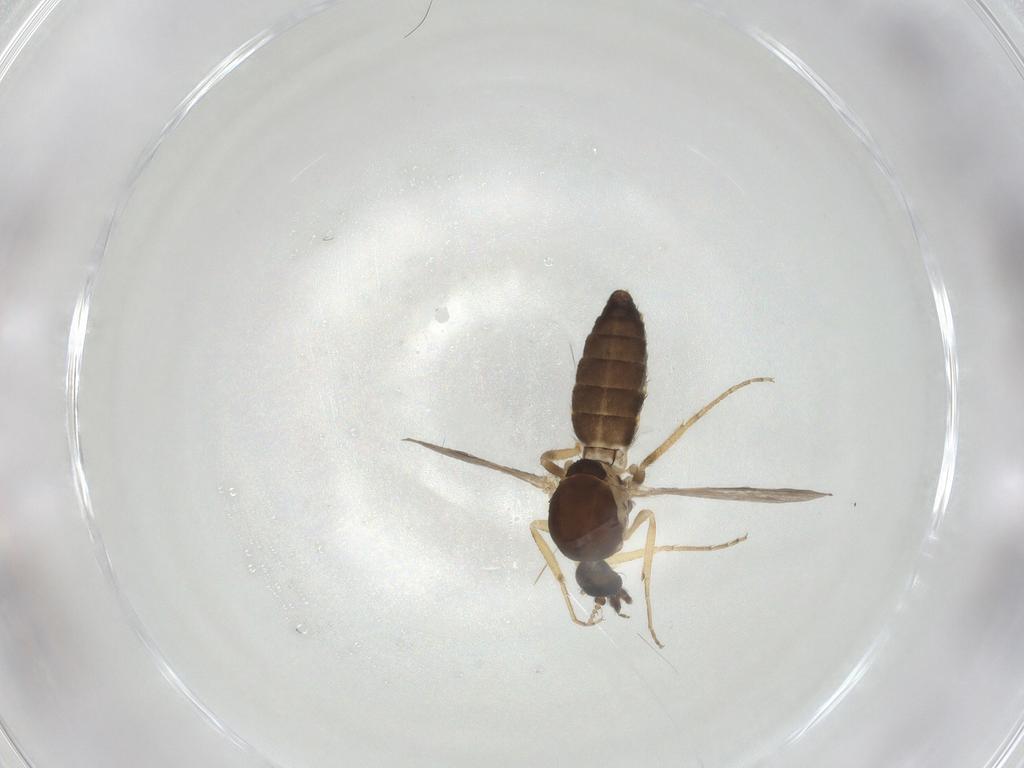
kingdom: Animalia
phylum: Arthropoda
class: Insecta
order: Diptera
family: Ceratopogonidae
